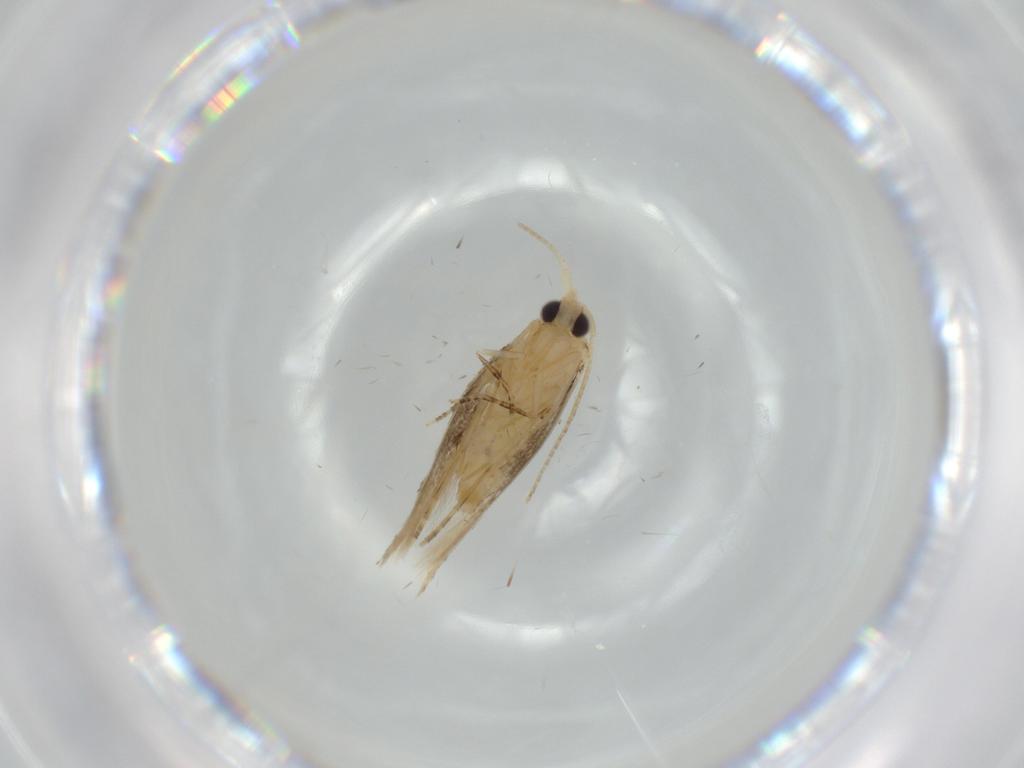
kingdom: Animalia
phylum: Arthropoda
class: Insecta
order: Lepidoptera
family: Bucculatricidae
